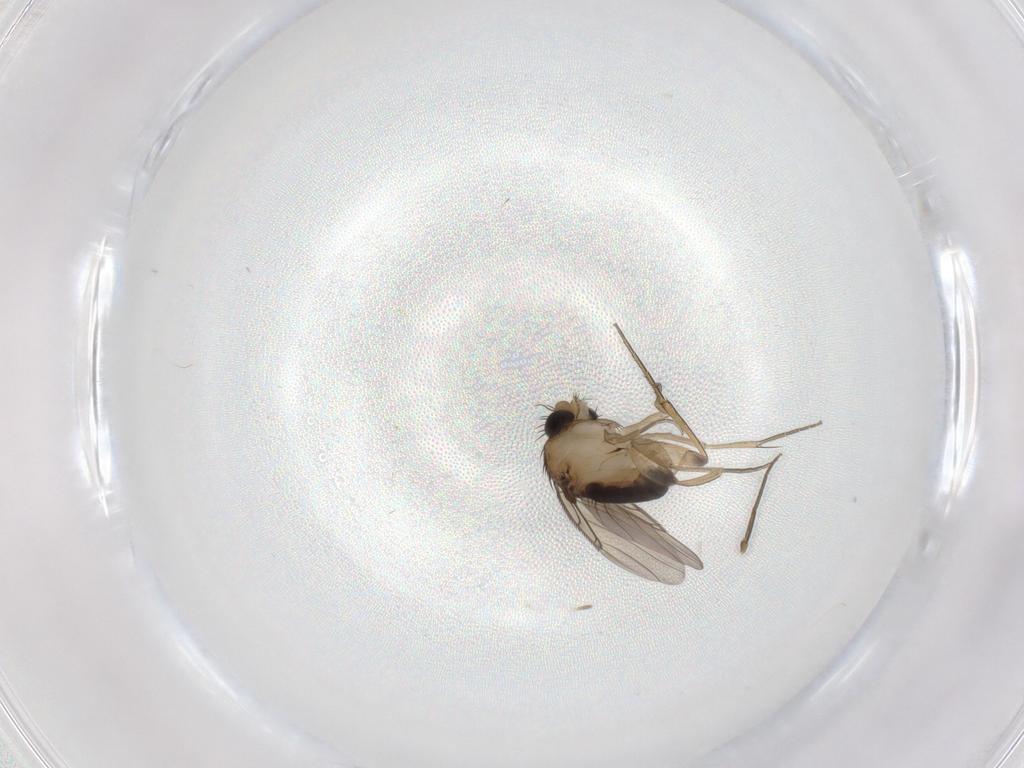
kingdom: Animalia
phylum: Arthropoda
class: Insecta
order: Diptera
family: Phoridae
